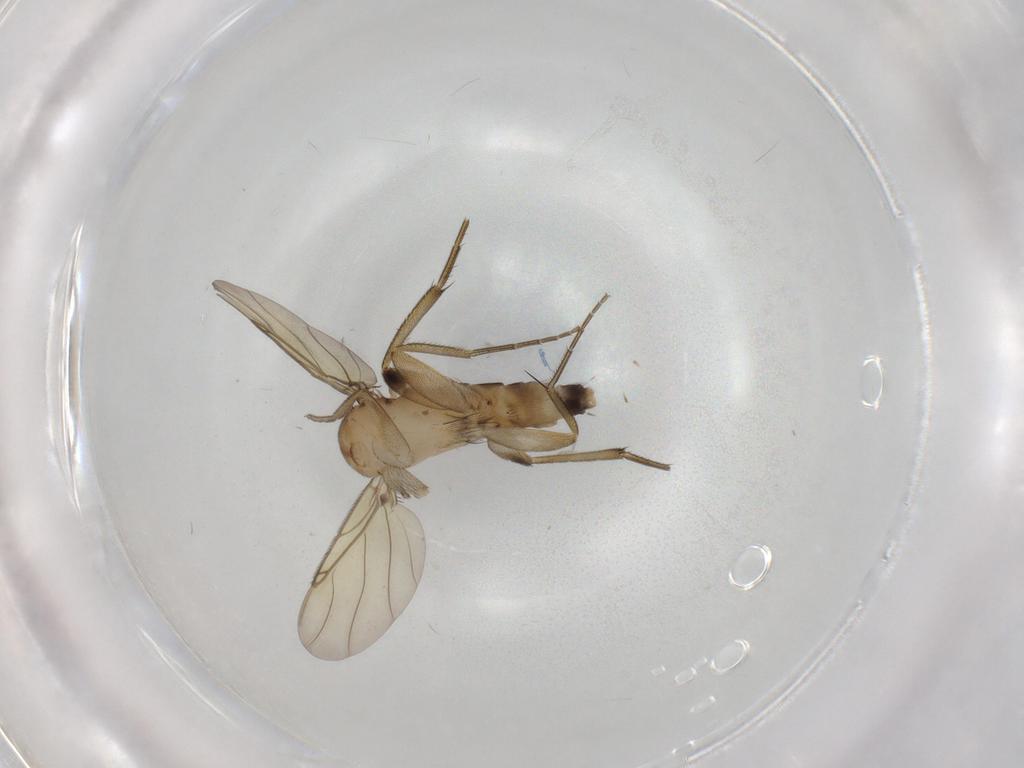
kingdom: Animalia
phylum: Arthropoda
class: Insecta
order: Diptera
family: Phoridae
